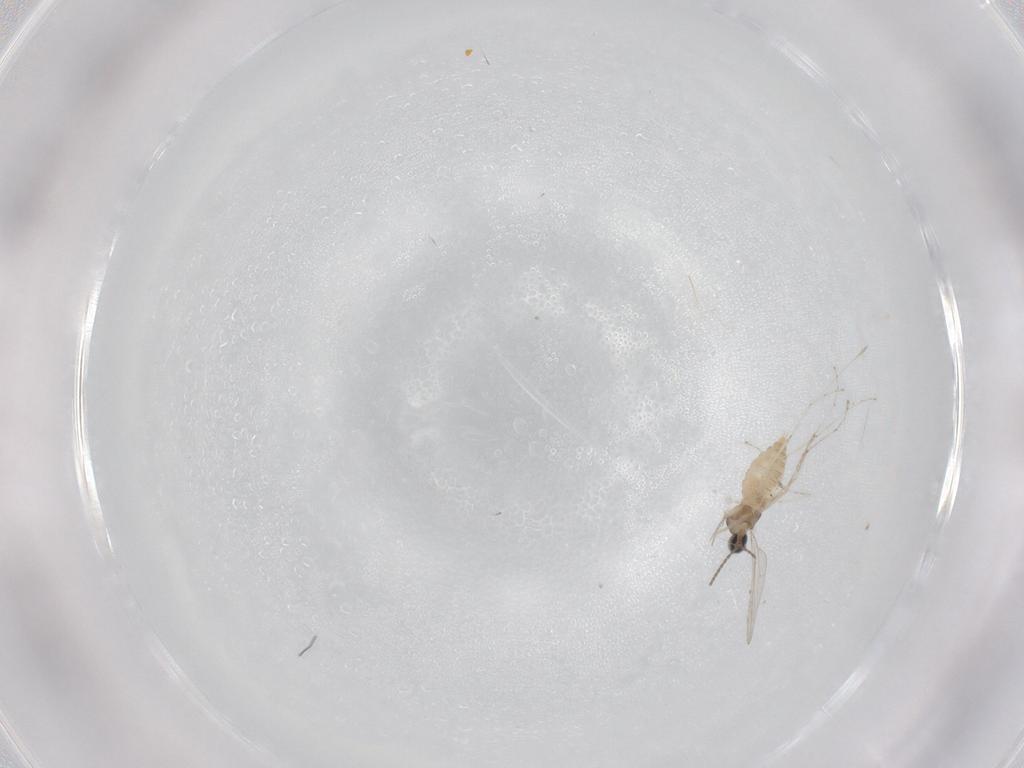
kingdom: Animalia
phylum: Arthropoda
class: Insecta
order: Diptera
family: Cecidomyiidae
